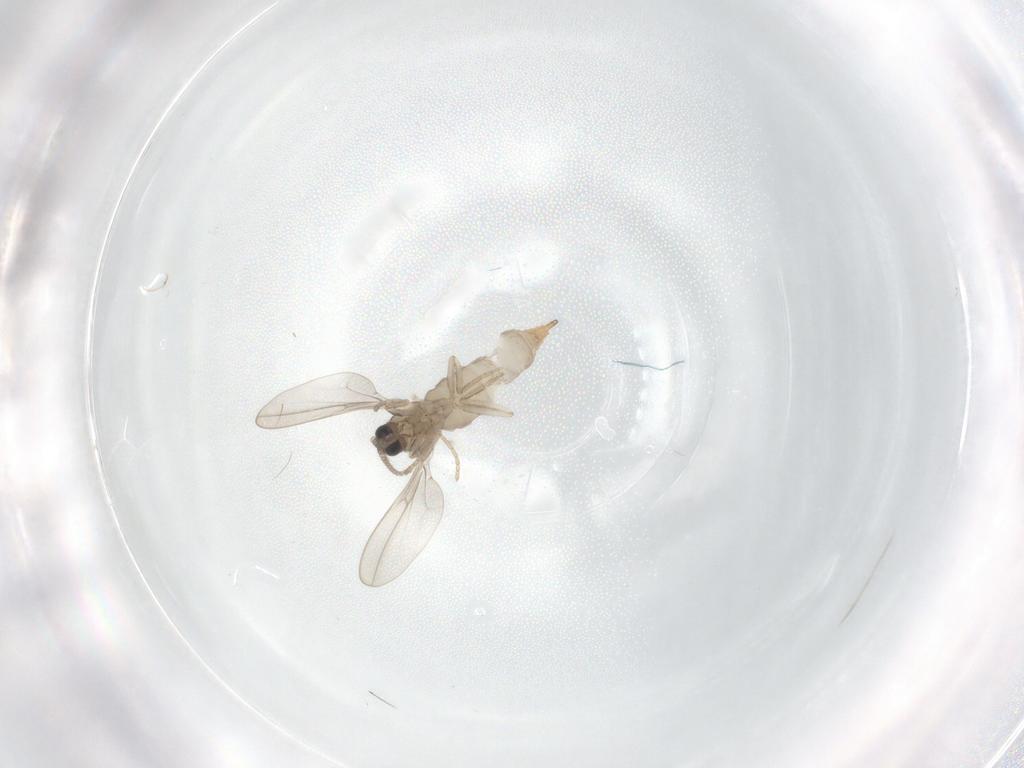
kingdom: Animalia
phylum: Arthropoda
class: Insecta
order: Diptera
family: Cecidomyiidae
